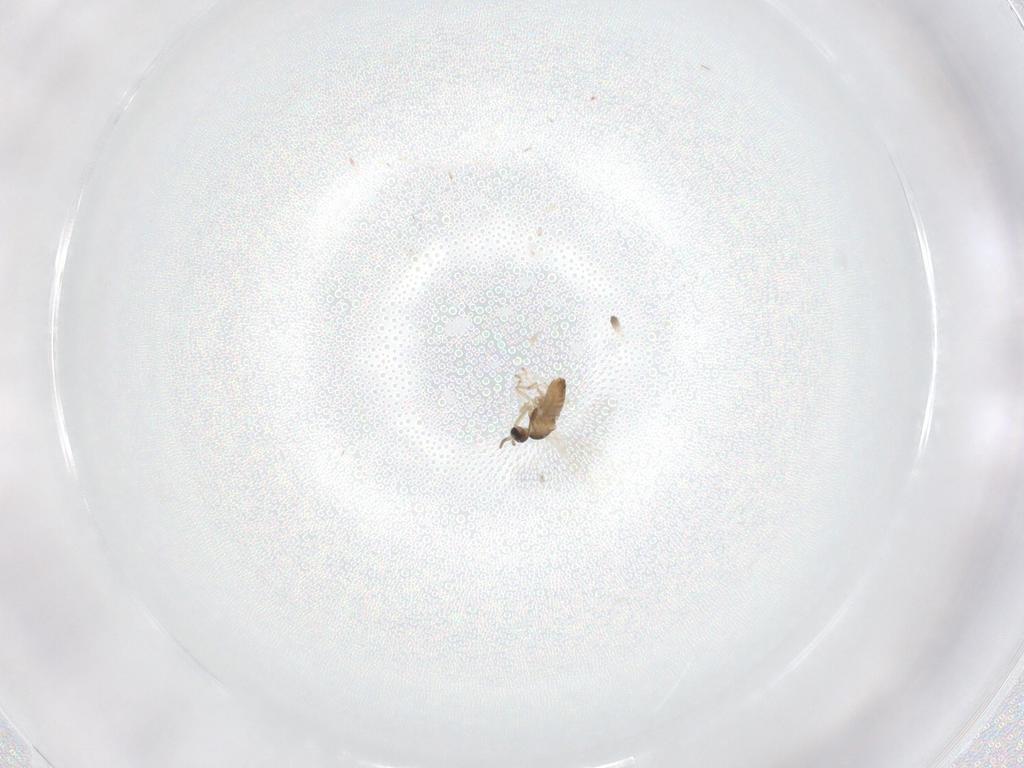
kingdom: Animalia
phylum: Arthropoda
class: Insecta
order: Diptera
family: Cecidomyiidae
